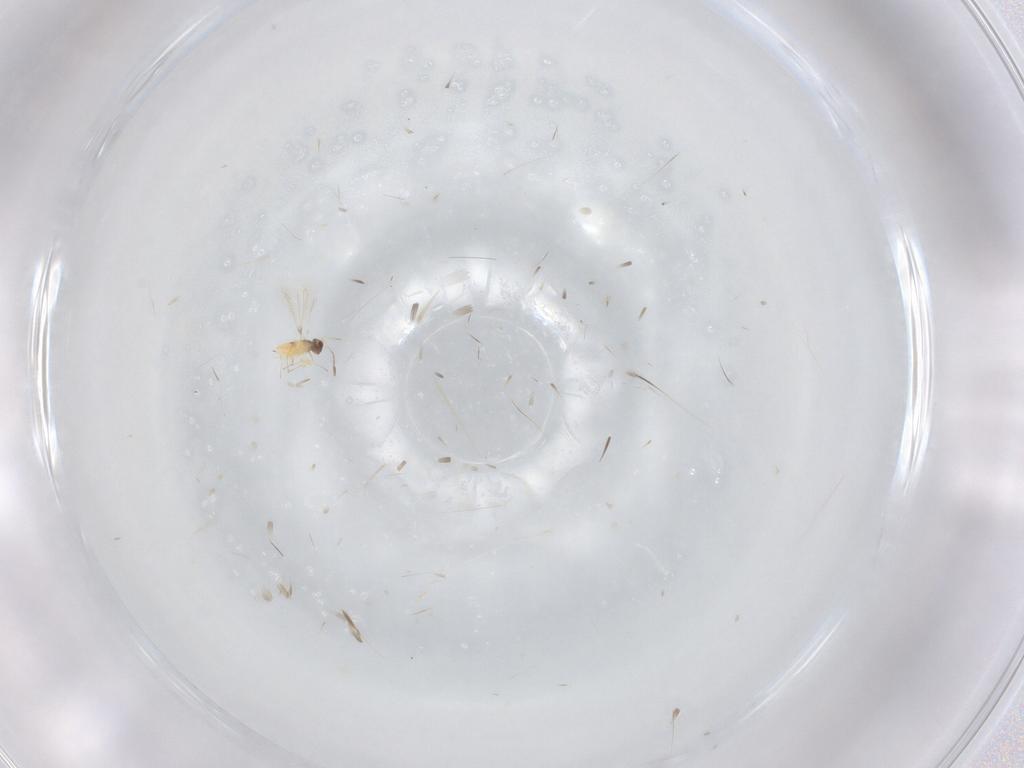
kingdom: Animalia
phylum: Arthropoda
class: Insecta
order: Hymenoptera
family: Mymaridae
